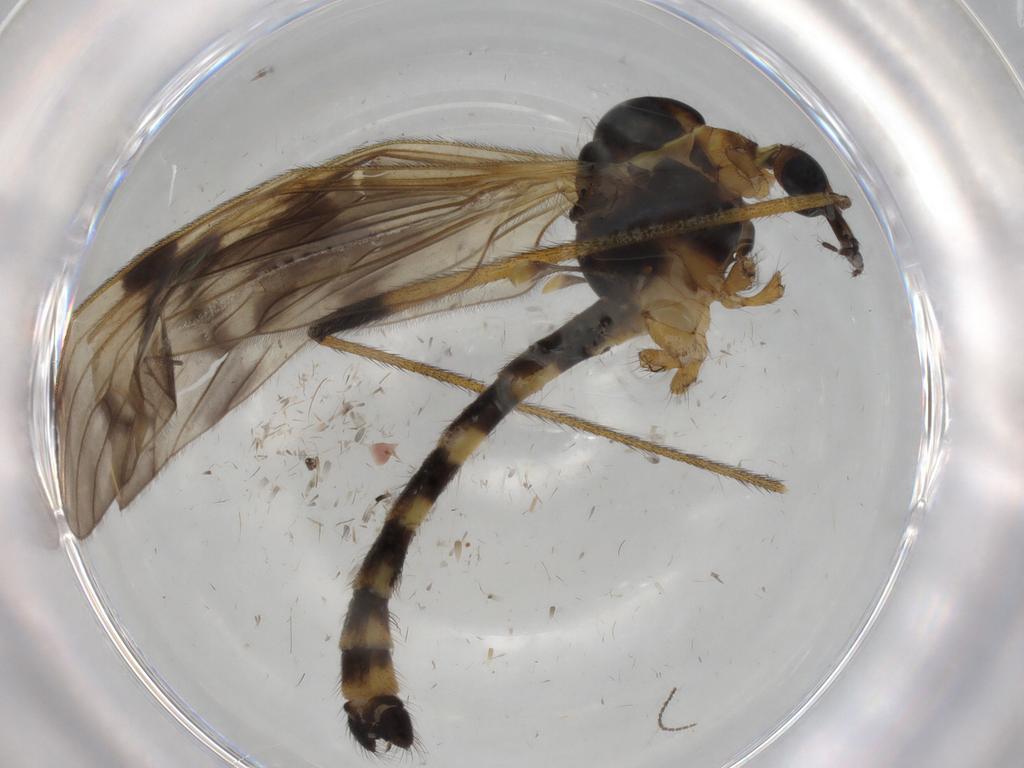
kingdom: Animalia
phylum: Arthropoda
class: Insecta
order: Diptera
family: Limoniidae
